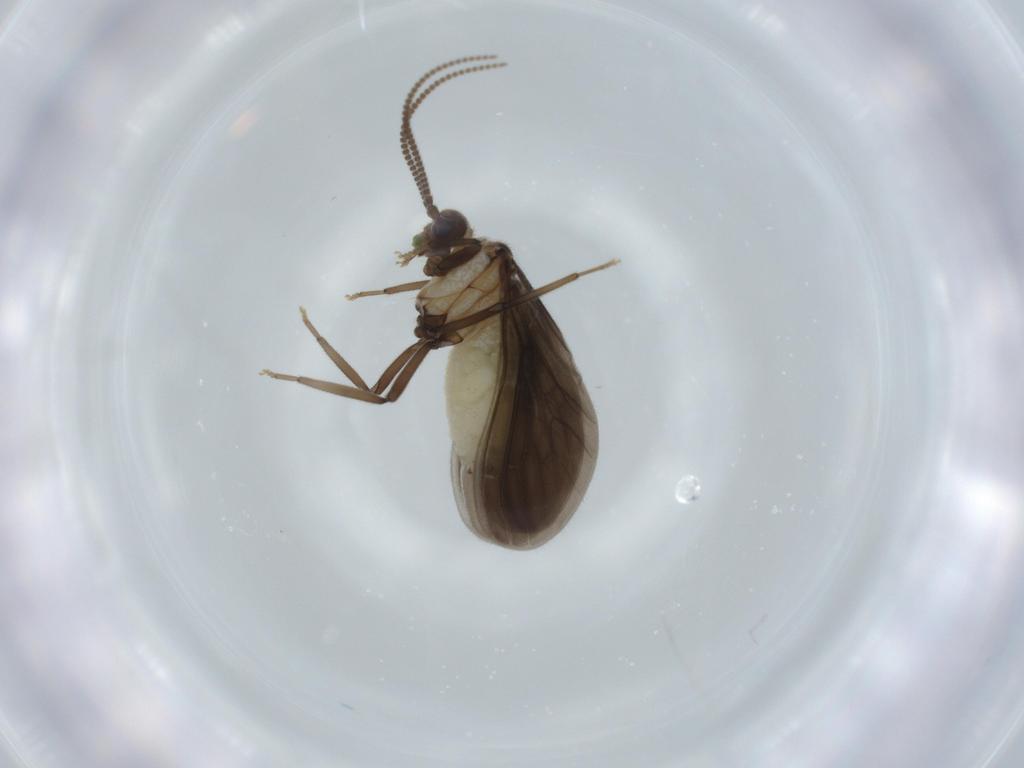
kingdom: Animalia
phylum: Arthropoda
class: Insecta
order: Neuroptera
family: Coniopterygidae
